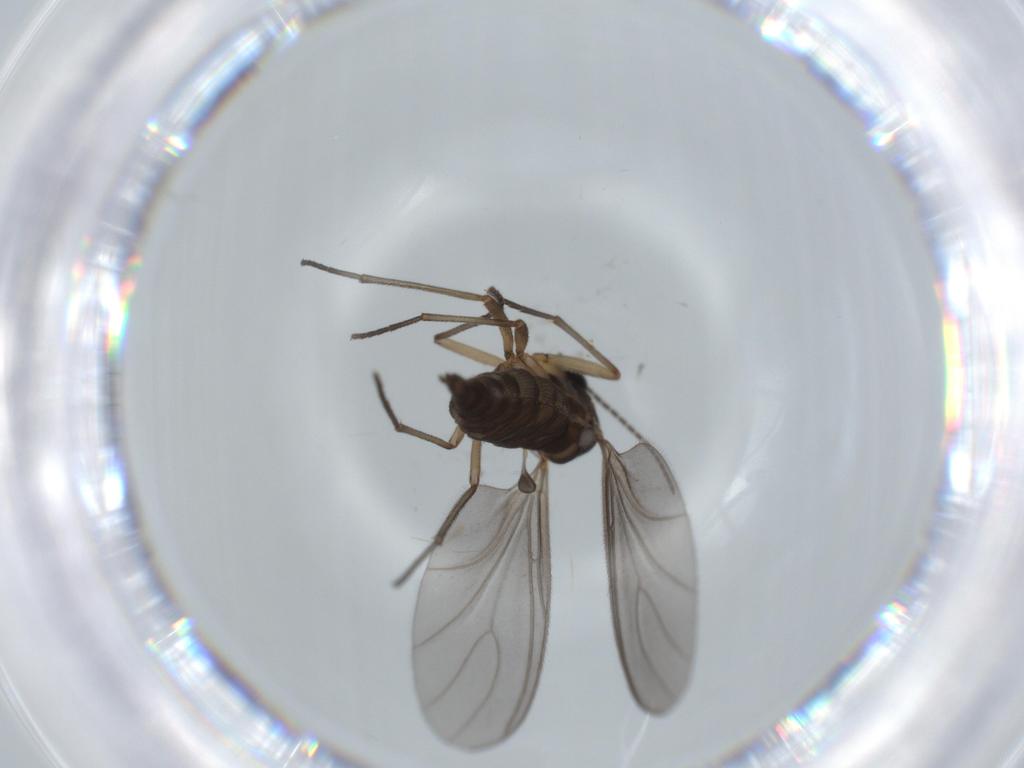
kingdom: Animalia
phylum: Arthropoda
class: Insecta
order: Diptera
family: Sciaridae
